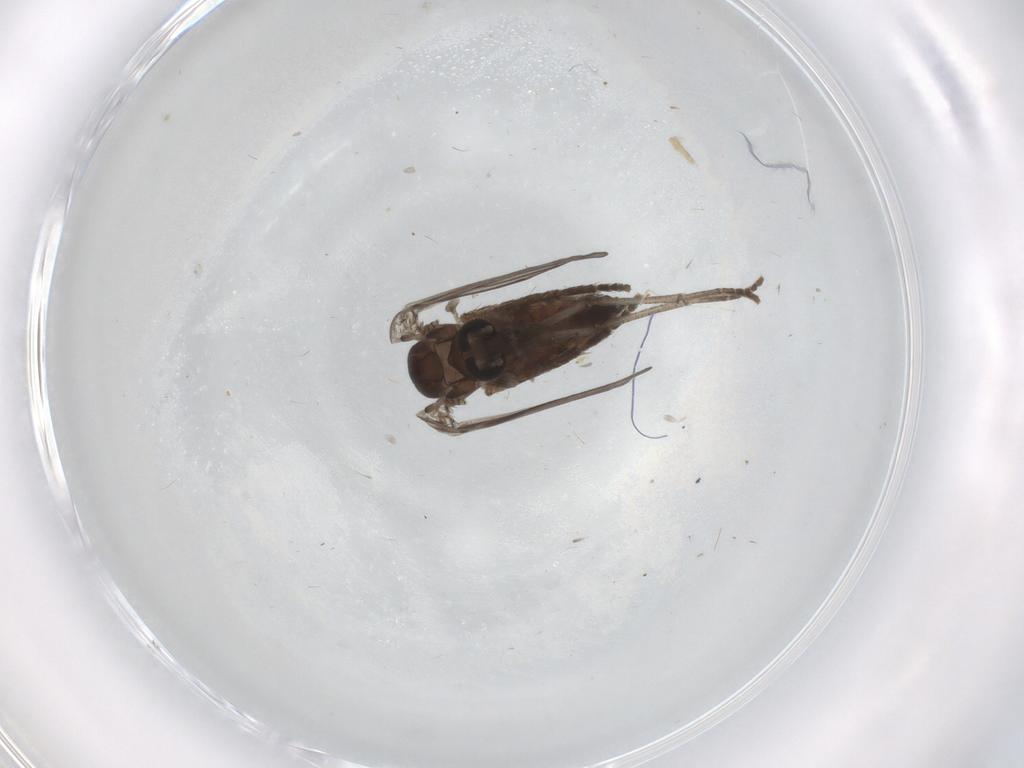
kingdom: Animalia
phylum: Arthropoda
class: Insecta
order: Diptera
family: Psychodidae
